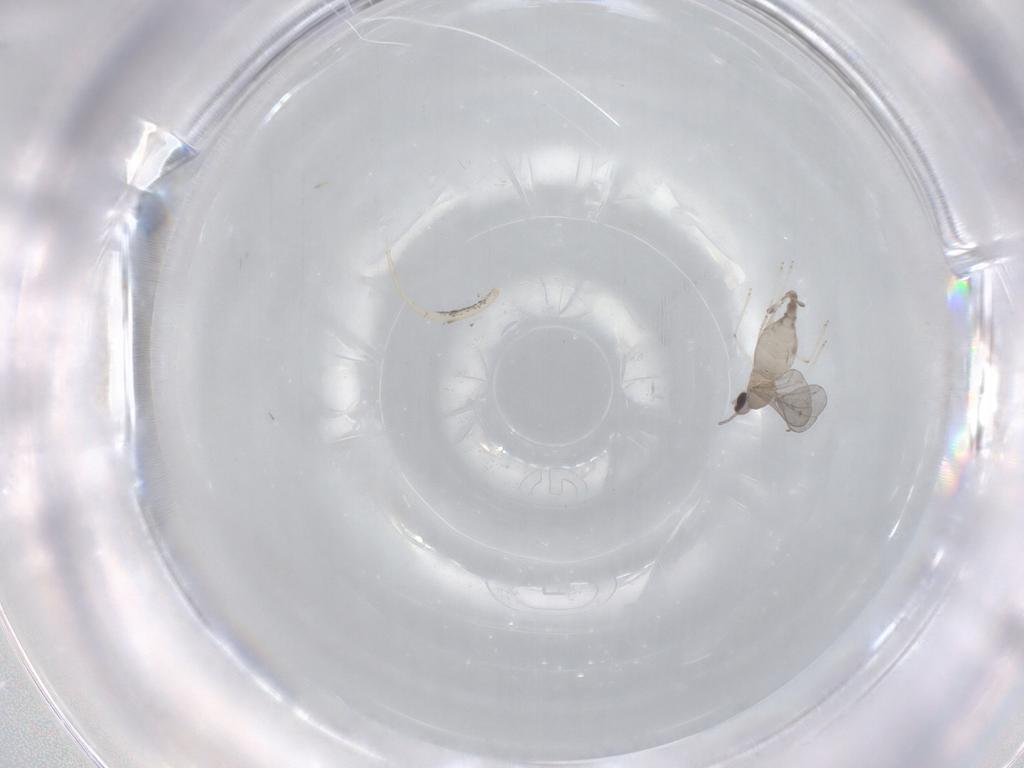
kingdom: Animalia
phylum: Arthropoda
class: Insecta
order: Diptera
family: Cecidomyiidae
